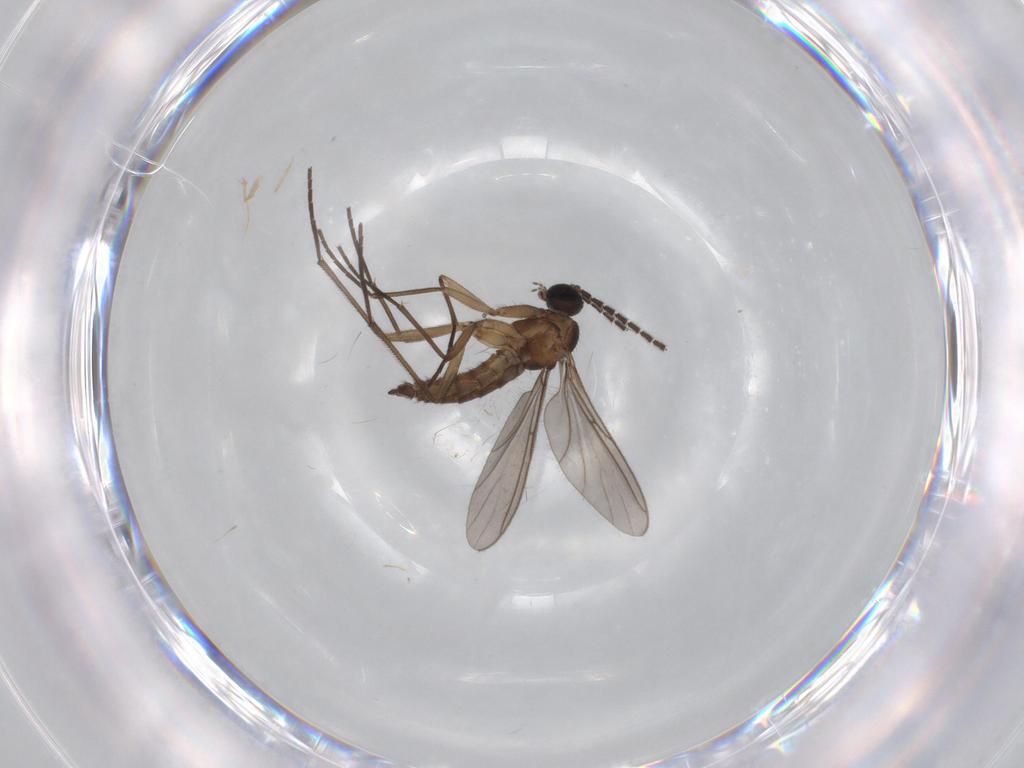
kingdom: Animalia
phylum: Arthropoda
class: Insecta
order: Diptera
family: Sciaridae
